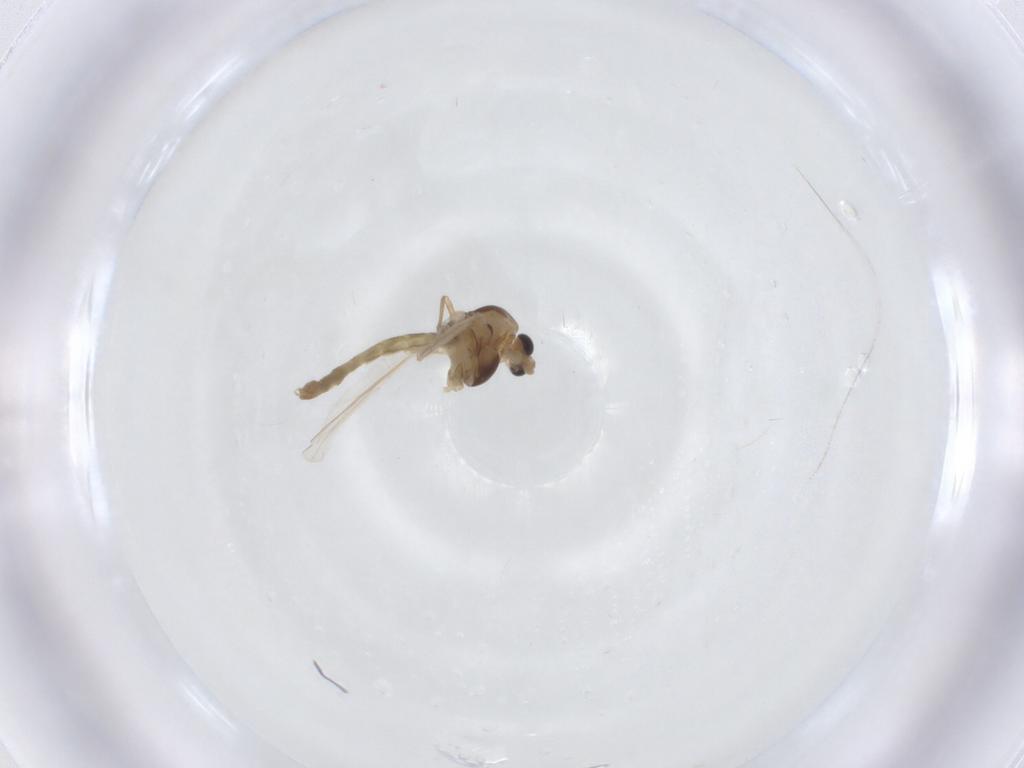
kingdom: Animalia
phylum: Arthropoda
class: Insecta
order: Diptera
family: Chironomidae
